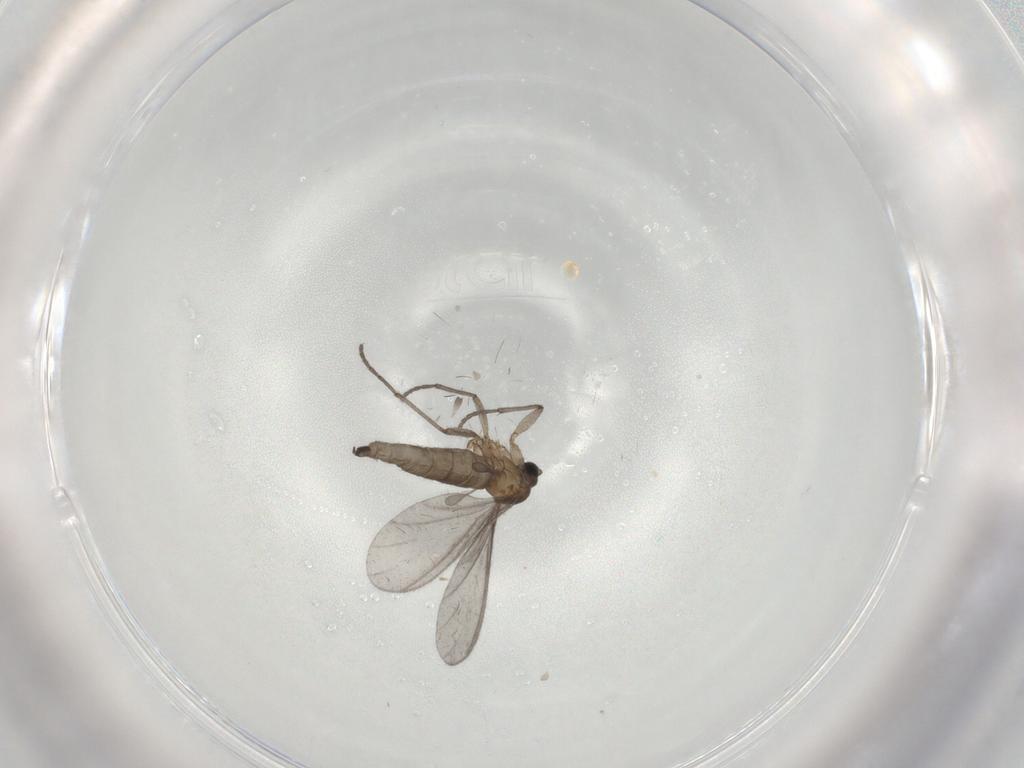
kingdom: Animalia
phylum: Arthropoda
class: Insecta
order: Diptera
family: Sciaridae
